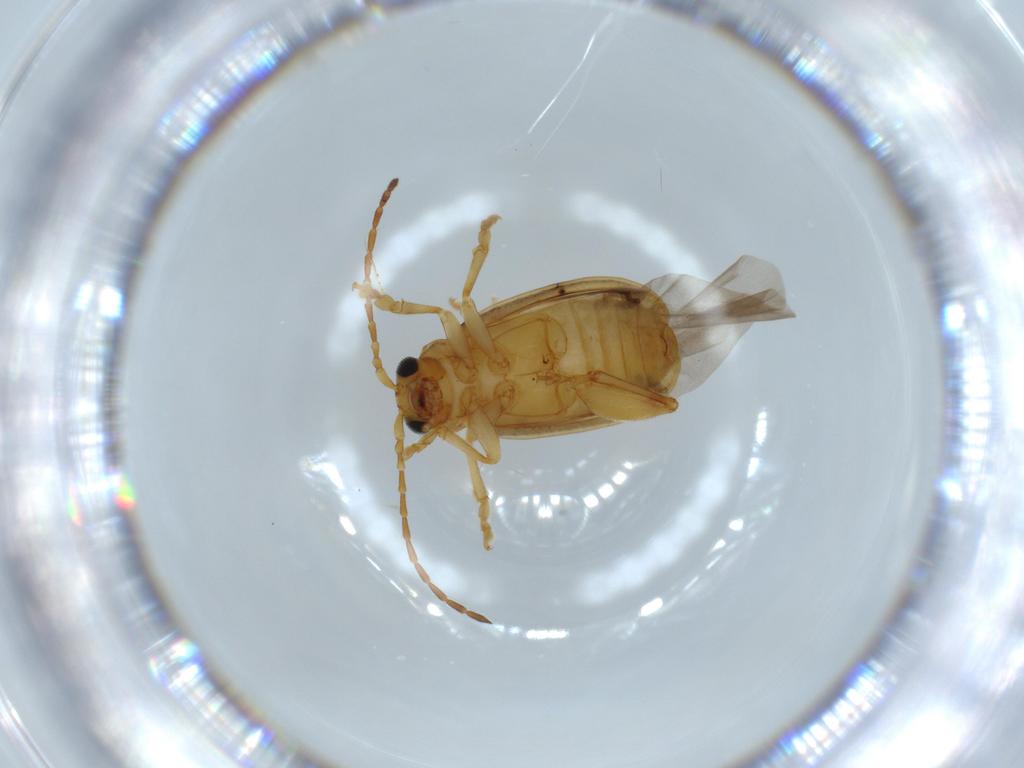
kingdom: Animalia
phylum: Arthropoda
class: Insecta
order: Coleoptera
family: Chrysomelidae
